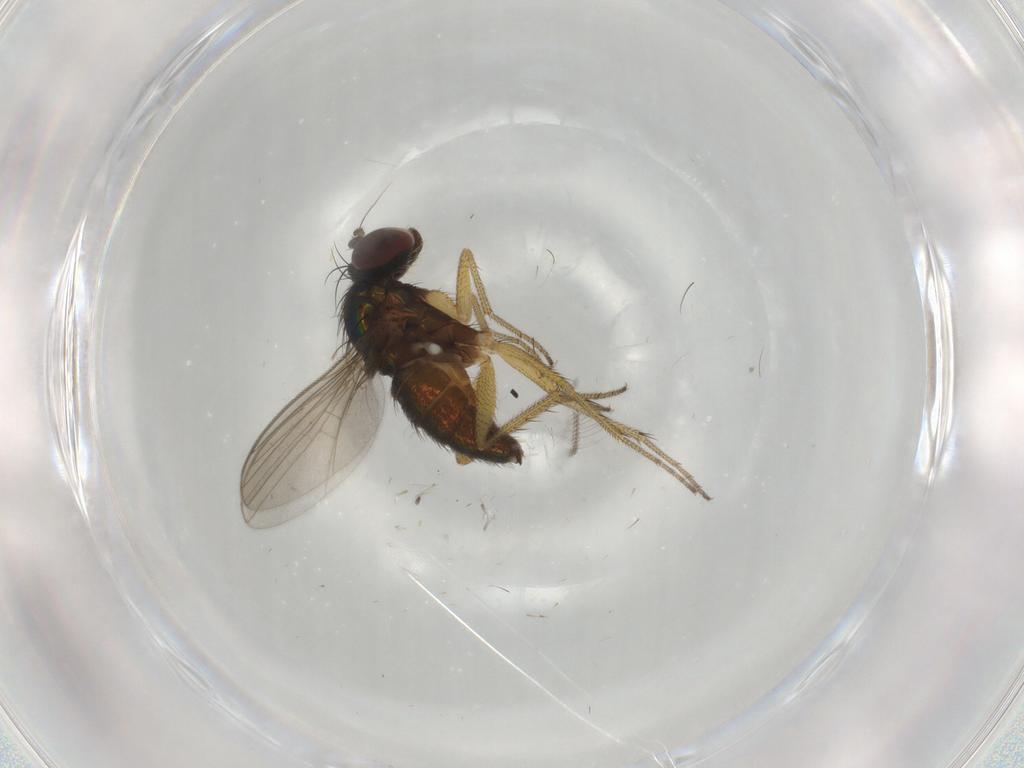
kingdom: Animalia
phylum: Arthropoda
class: Insecta
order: Diptera
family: Dolichopodidae
